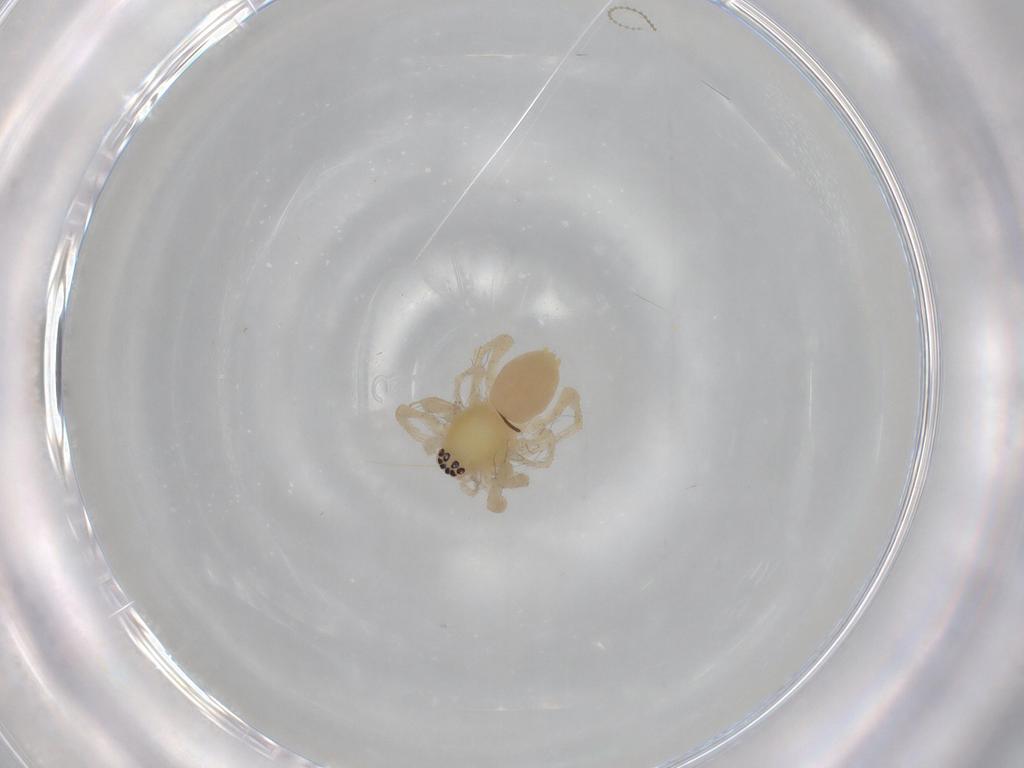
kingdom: Animalia
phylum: Arthropoda
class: Arachnida
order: Araneae
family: Anyphaenidae
